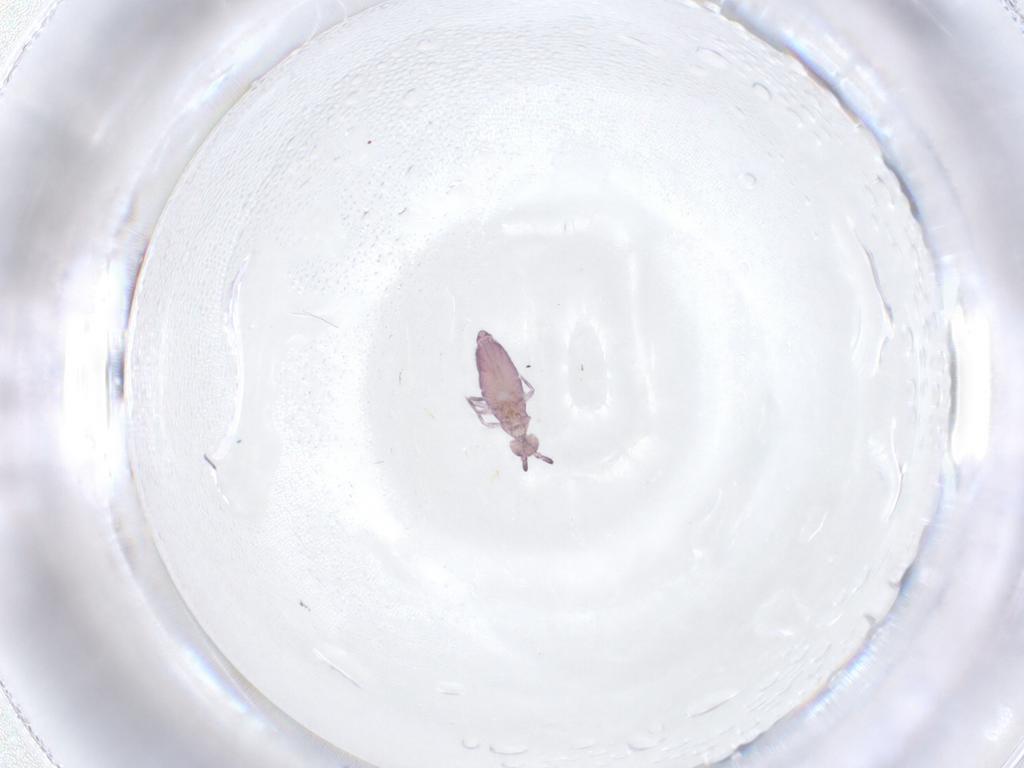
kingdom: Animalia
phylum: Arthropoda
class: Collembola
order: Entomobryomorpha
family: Entomobryidae
